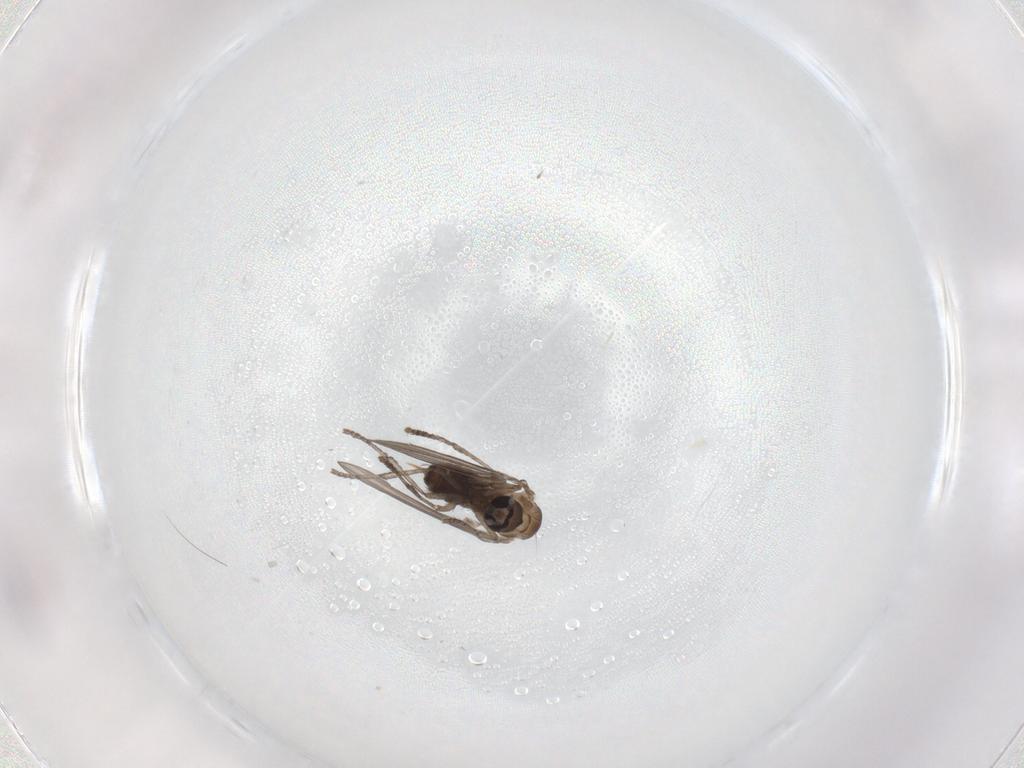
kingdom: Animalia
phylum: Arthropoda
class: Insecta
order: Diptera
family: Psychodidae
